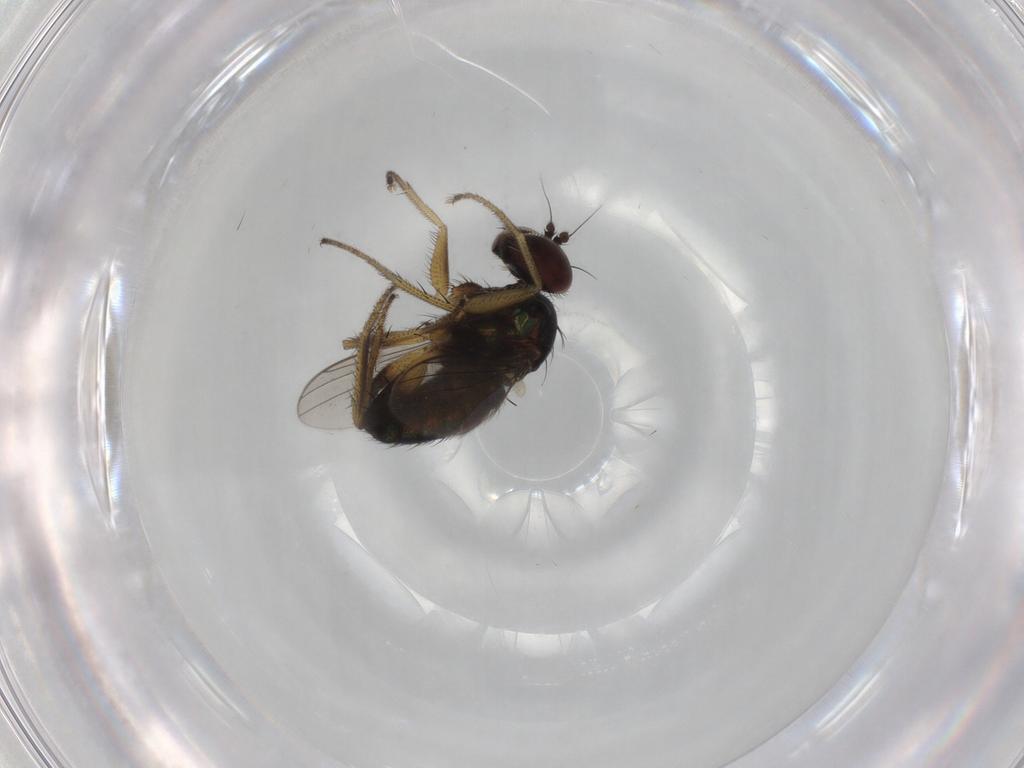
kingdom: Animalia
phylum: Arthropoda
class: Insecta
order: Diptera
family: Dolichopodidae
